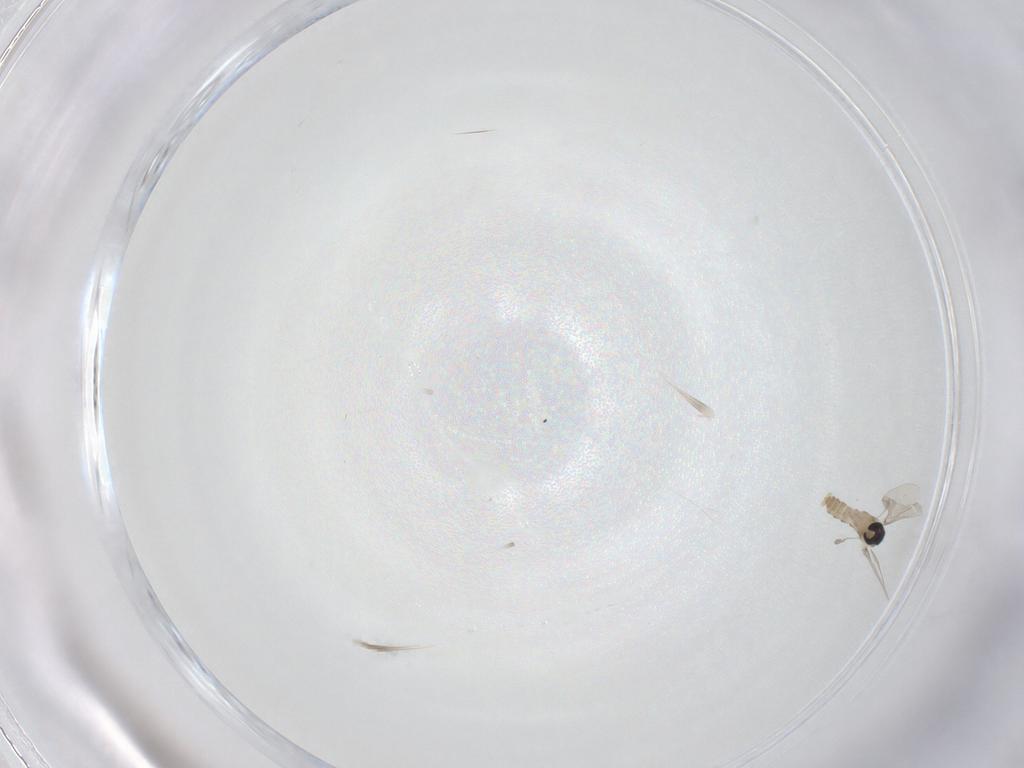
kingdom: Animalia
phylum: Arthropoda
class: Insecta
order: Diptera
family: Cecidomyiidae
